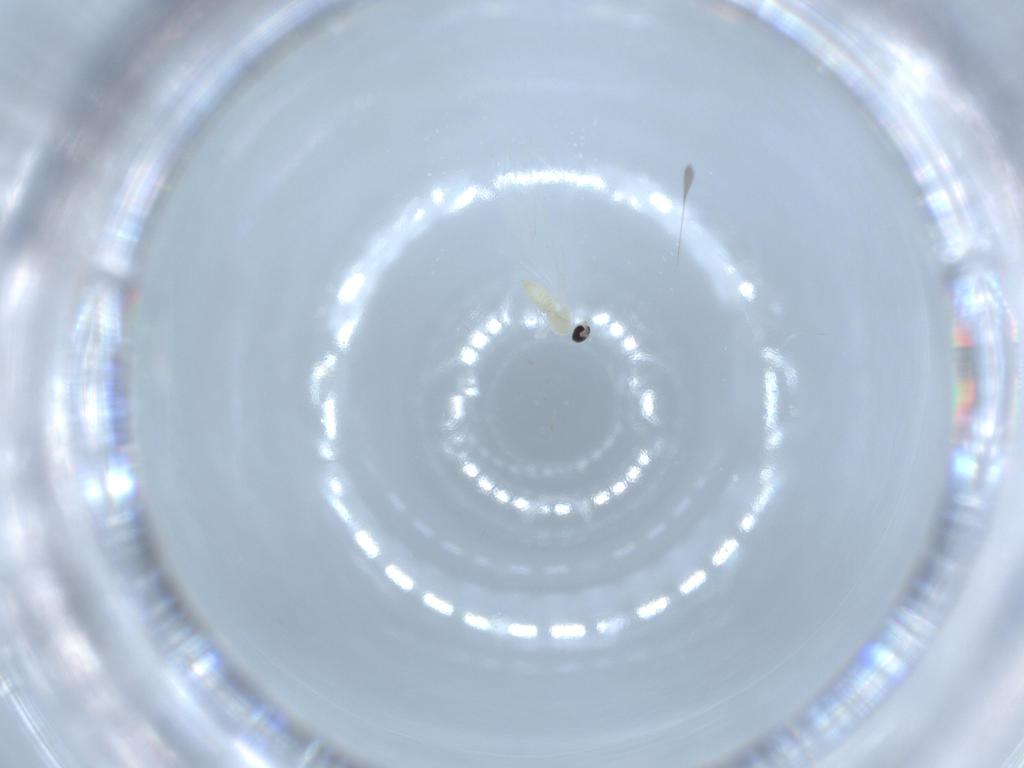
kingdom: Animalia
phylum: Arthropoda
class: Insecta
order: Diptera
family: Cecidomyiidae
